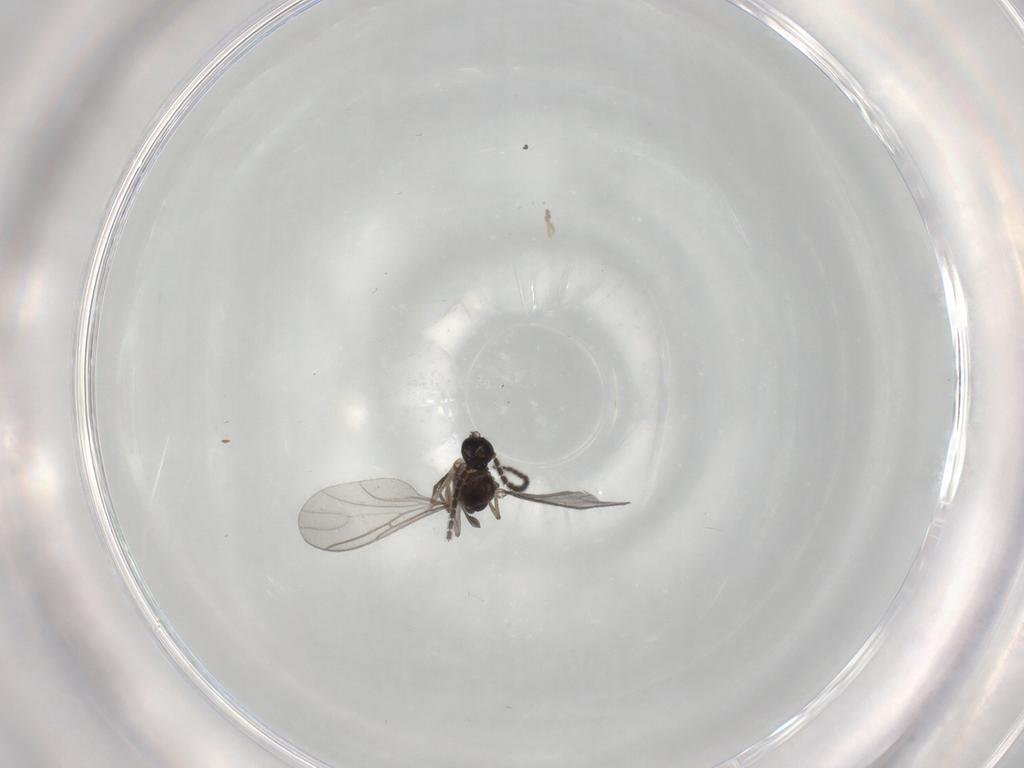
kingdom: Animalia
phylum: Arthropoda
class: Insecta
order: Diptera
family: Sciaridae
